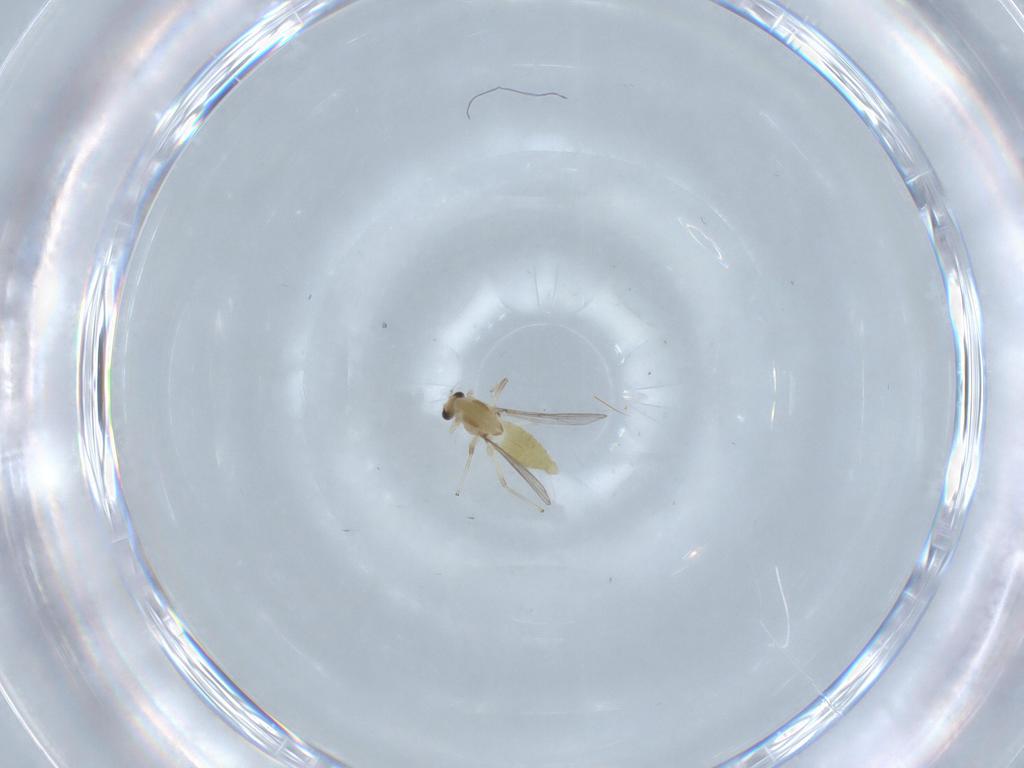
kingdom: Animalia
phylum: Arthropoda
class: Insecta
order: Diptera
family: Chironomidae
